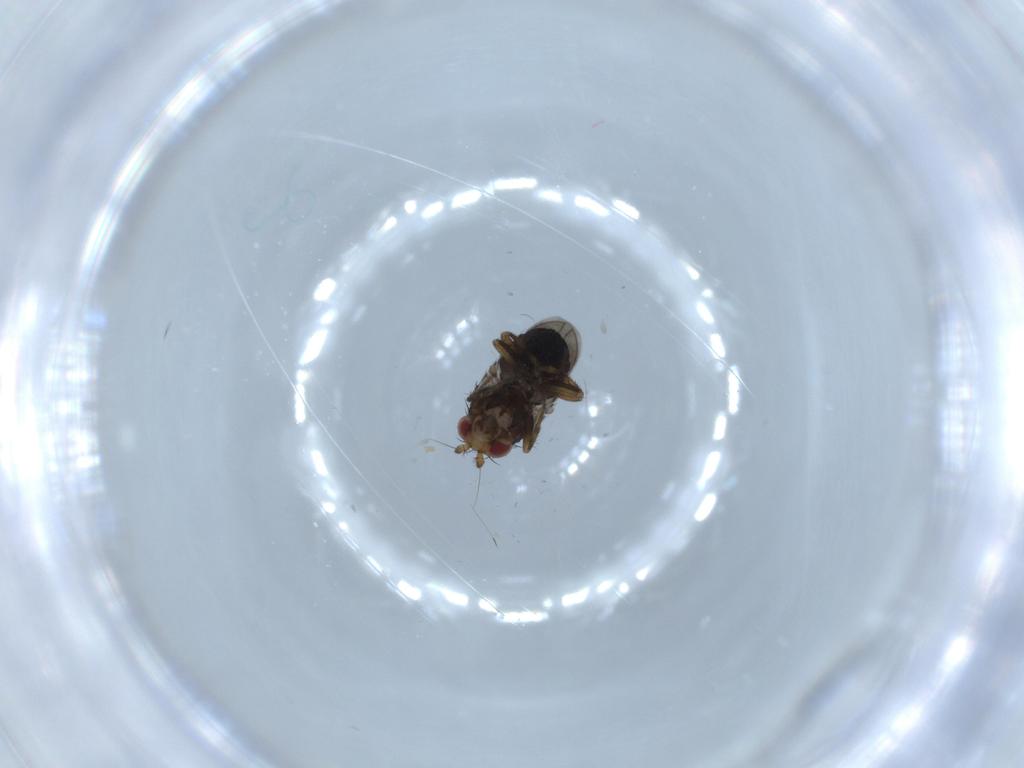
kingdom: Animalia
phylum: Arthropoda
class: Insecta
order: Diptera
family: Sphaeroceridae
